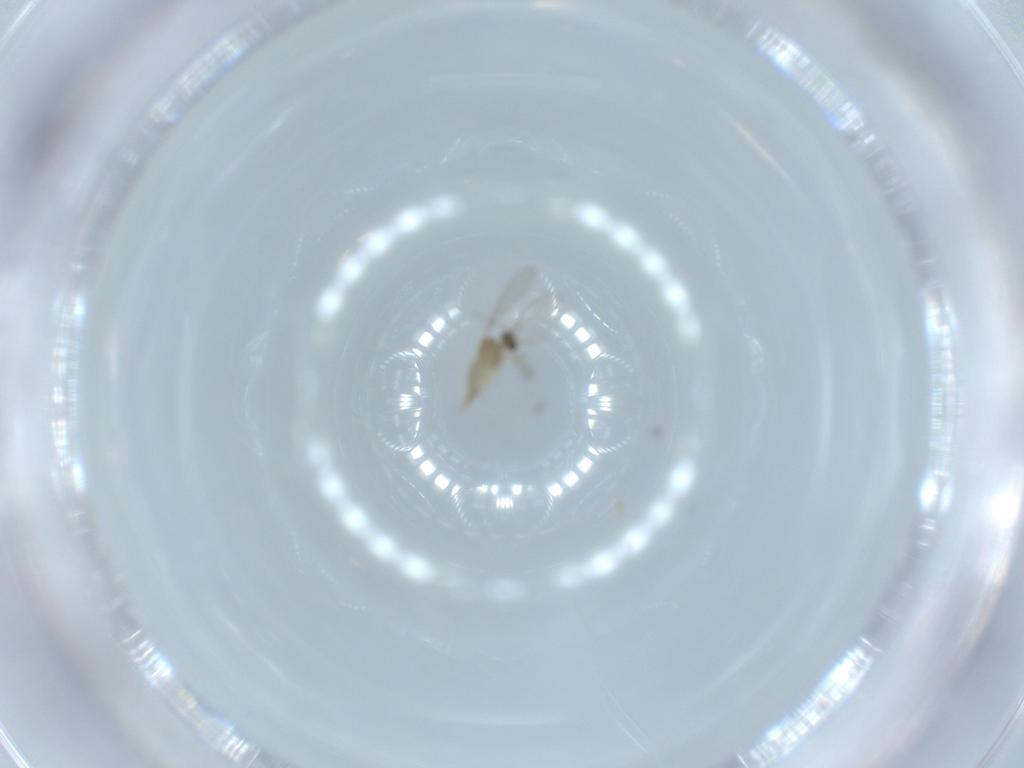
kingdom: Animalia
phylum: Arthropoda
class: Insecta
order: Diptera
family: Cecidomyiidae
